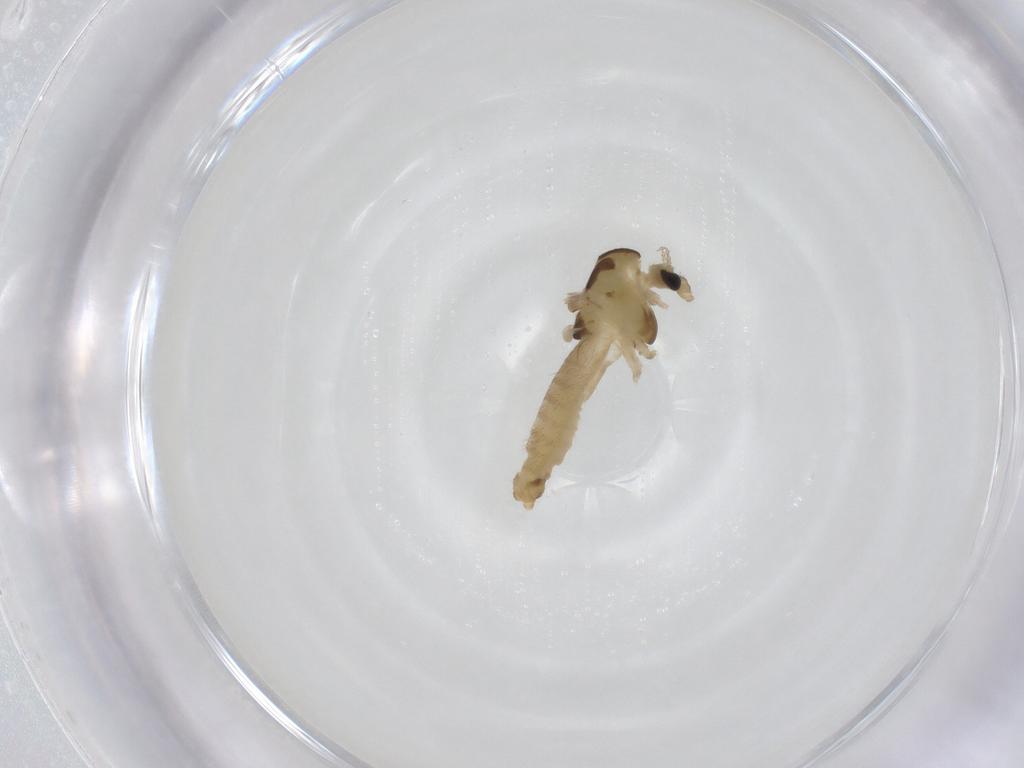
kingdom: Animalia
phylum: Arthropoda
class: Insecta
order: Diptera
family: Chironomidae
